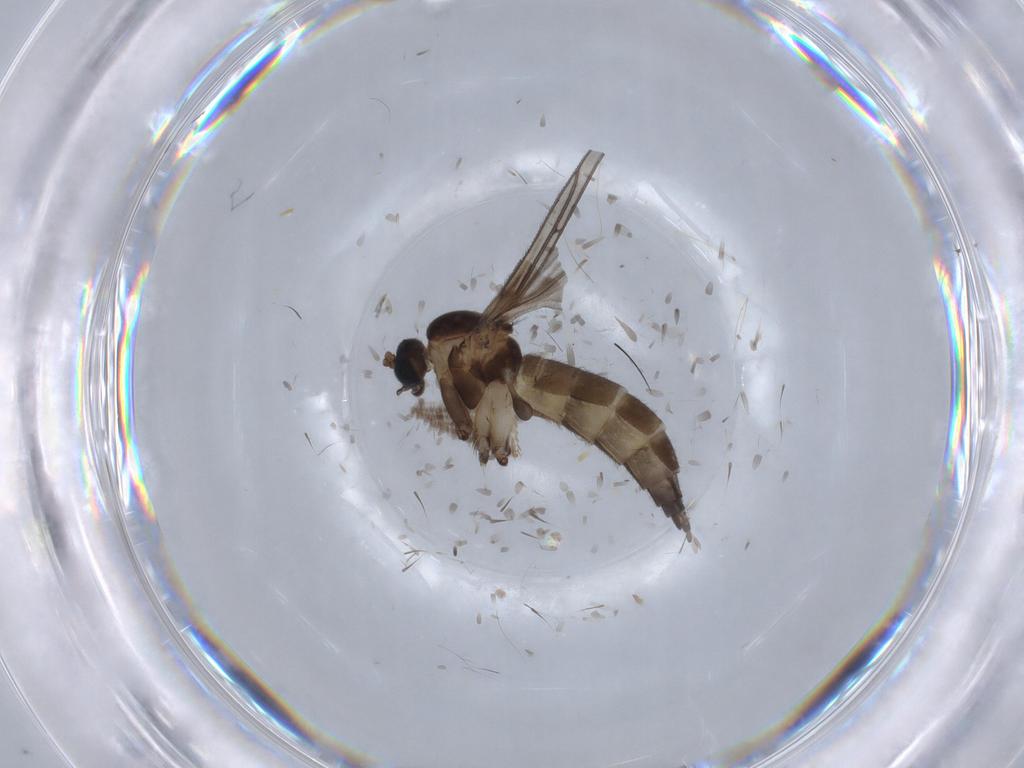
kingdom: Animalia
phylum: Arthropoda
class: Insecta
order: Diptera
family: Sciaridae
